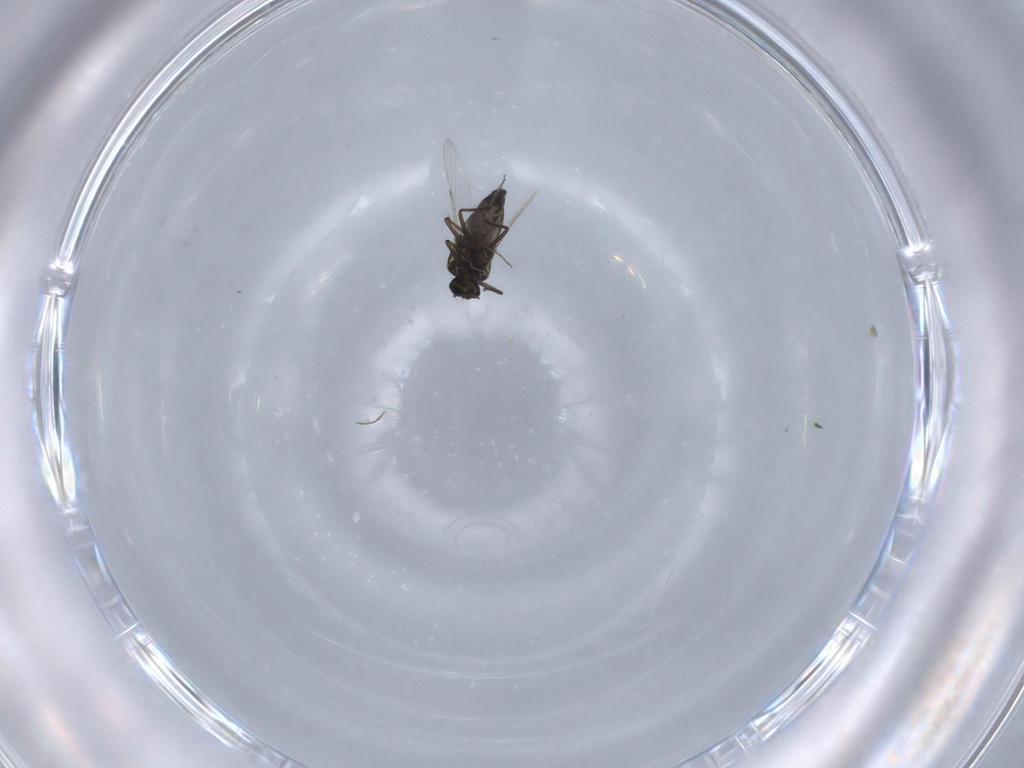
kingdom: Animalia
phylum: Arthropoda
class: Insecta
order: Diptera
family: Ceratopogonidae
